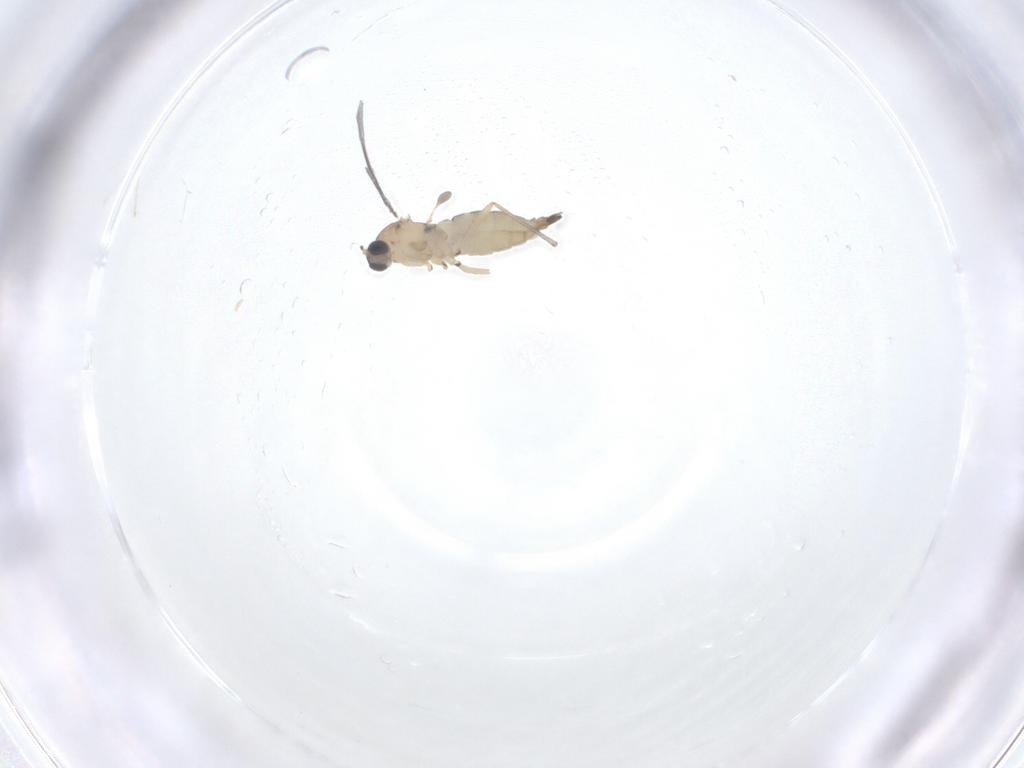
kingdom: Animalia
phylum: Arthropoda
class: Insecta
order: Diptera
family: Sciaridae
